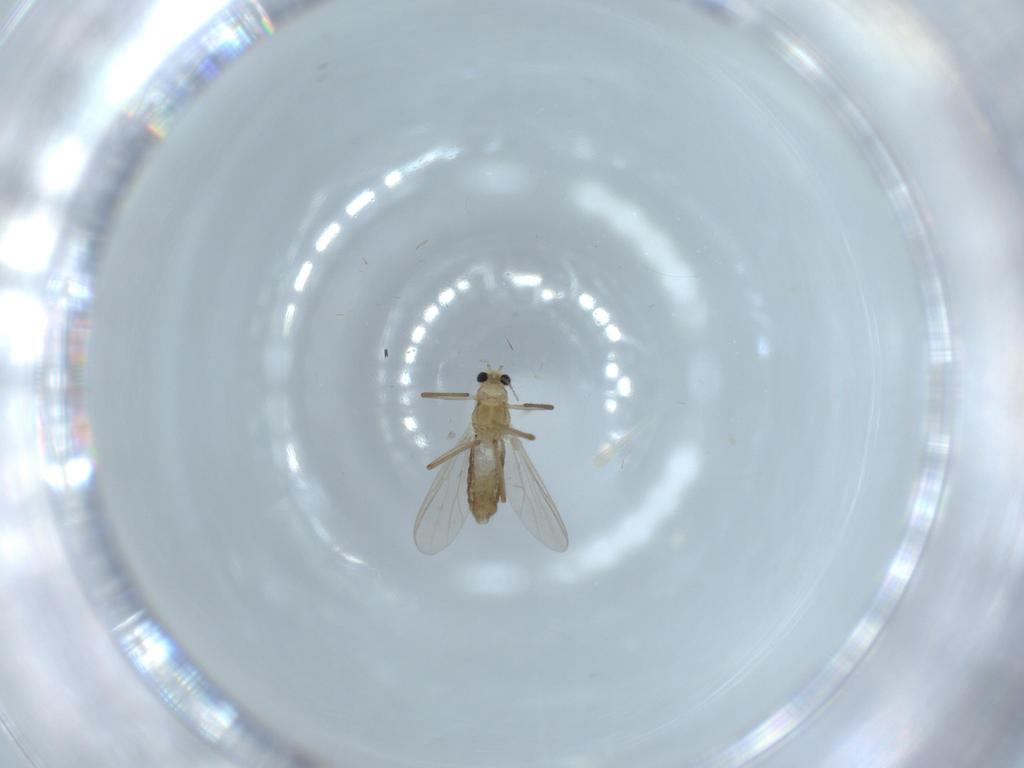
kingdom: Animalia
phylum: Arthropoda
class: Insecta
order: Diptera
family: Chironomidae
